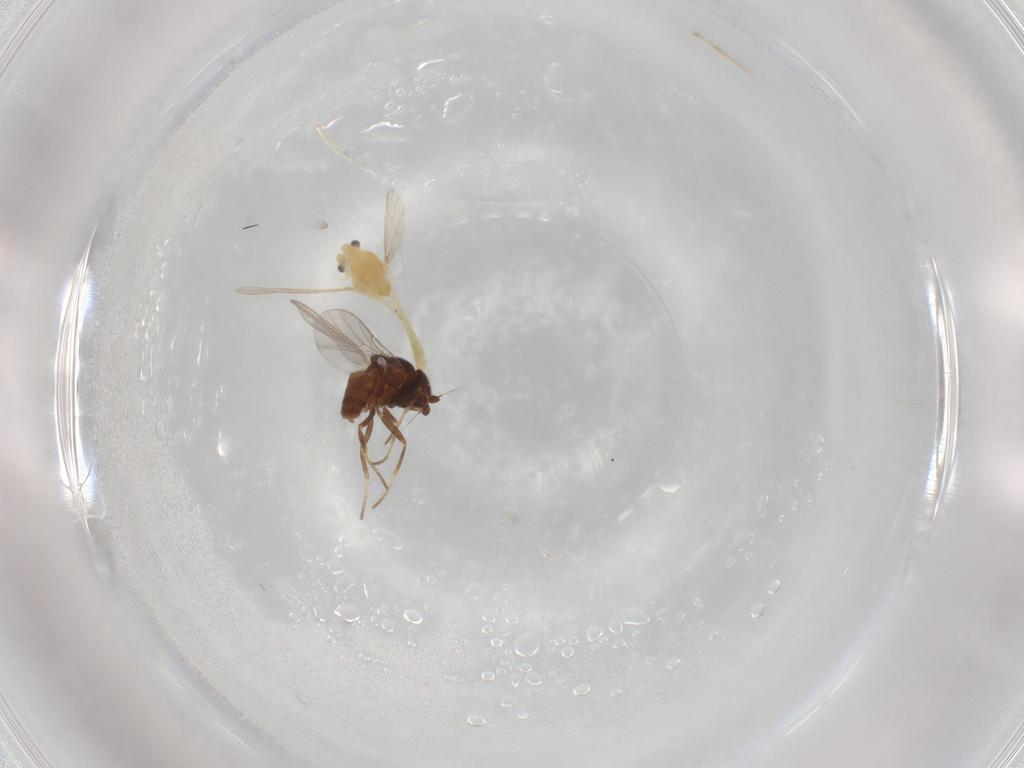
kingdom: Animalia
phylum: Arthropoda
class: Insecta
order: Diptera
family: Chironomidae
